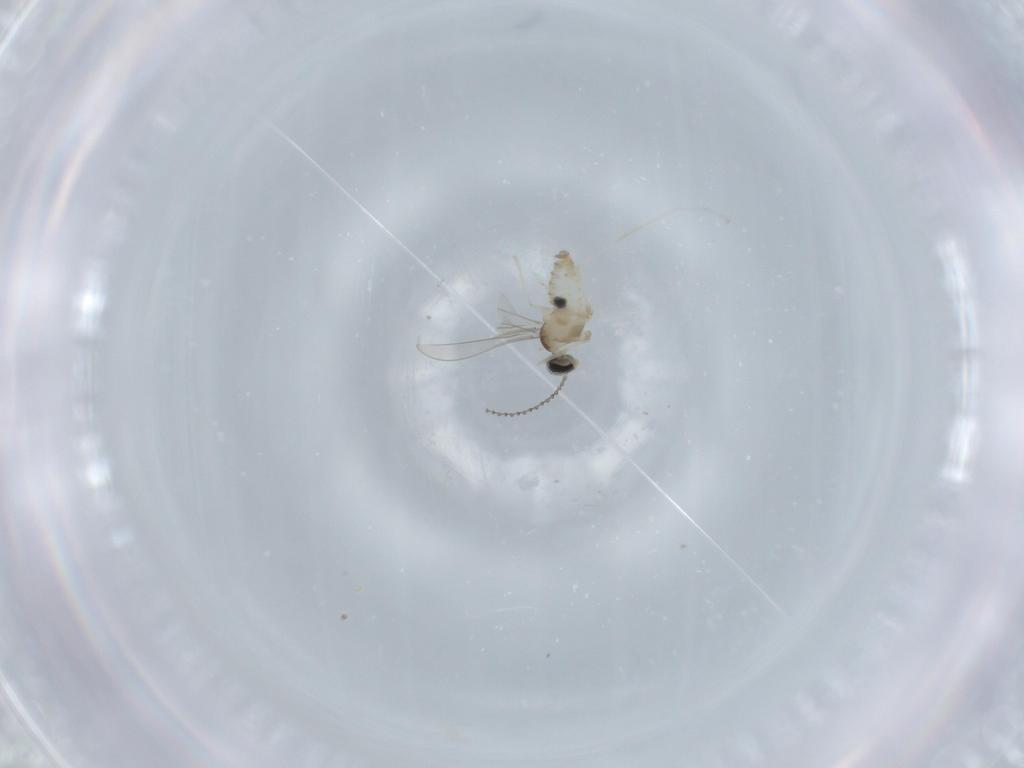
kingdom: Animalia
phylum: Arthropoda
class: Insecta
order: Diptera
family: Cecidomyiidae
